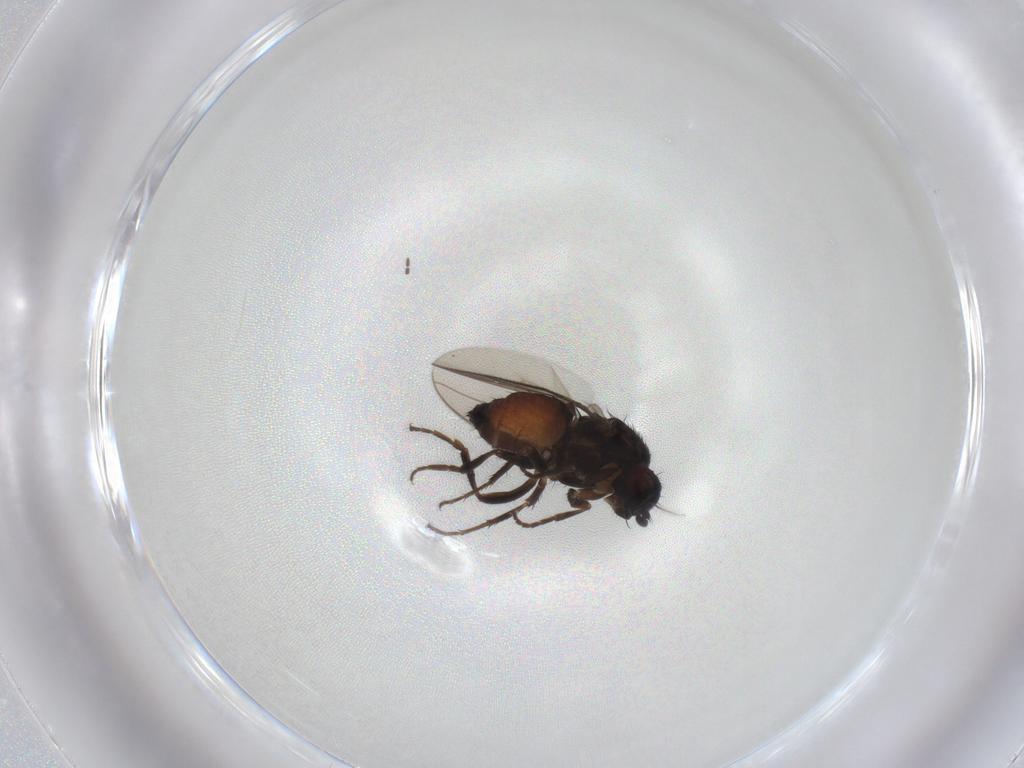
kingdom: Animalia
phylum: Arthropoda
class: Insecta
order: Diptera
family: Sphaeroceridae
